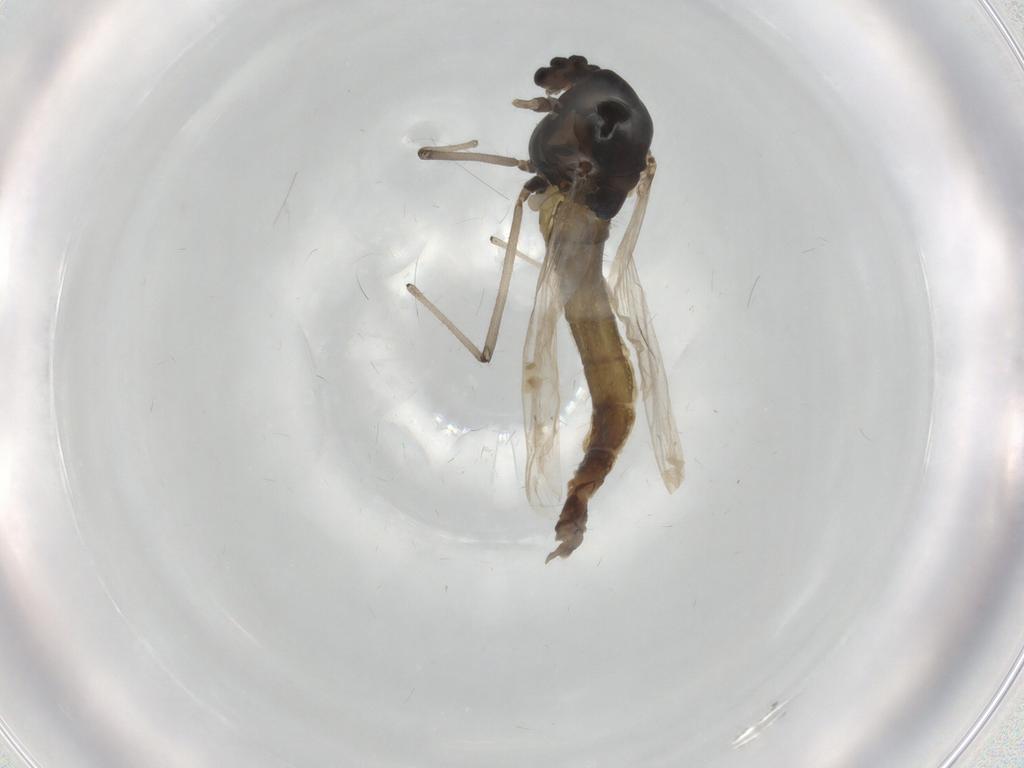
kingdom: Animalia
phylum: Arthropoda
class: Insecta
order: Diptera
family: Chironomidae
